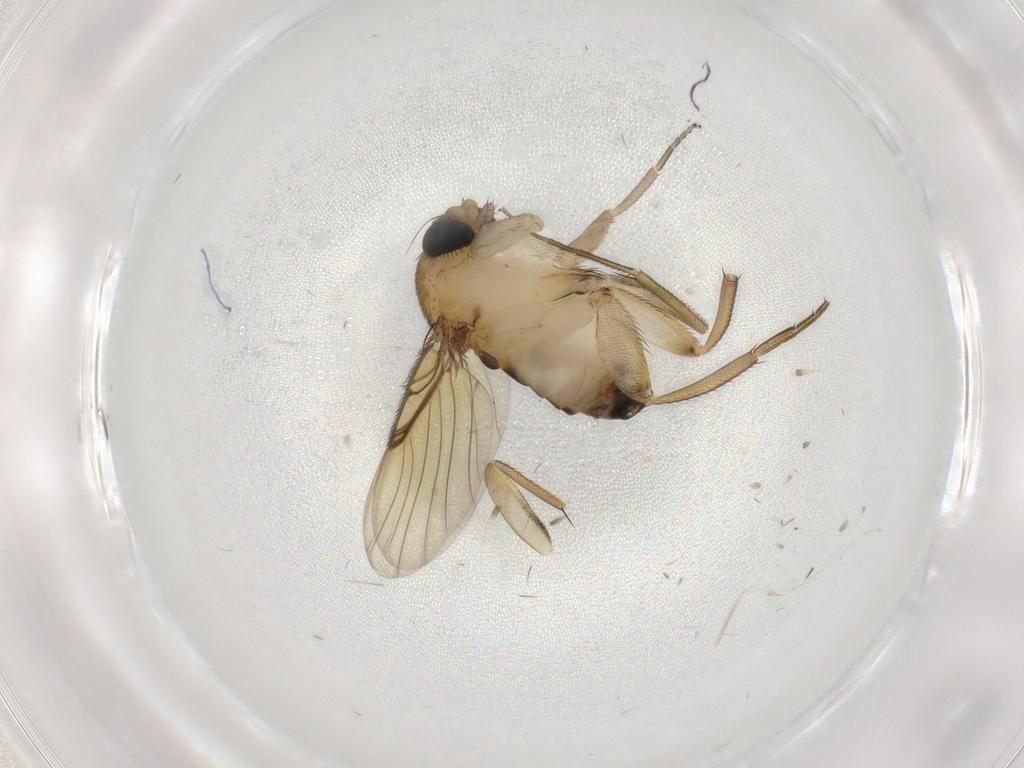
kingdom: Animalia
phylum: Arthropoda
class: Insecta
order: Diptera
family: Phoridae
